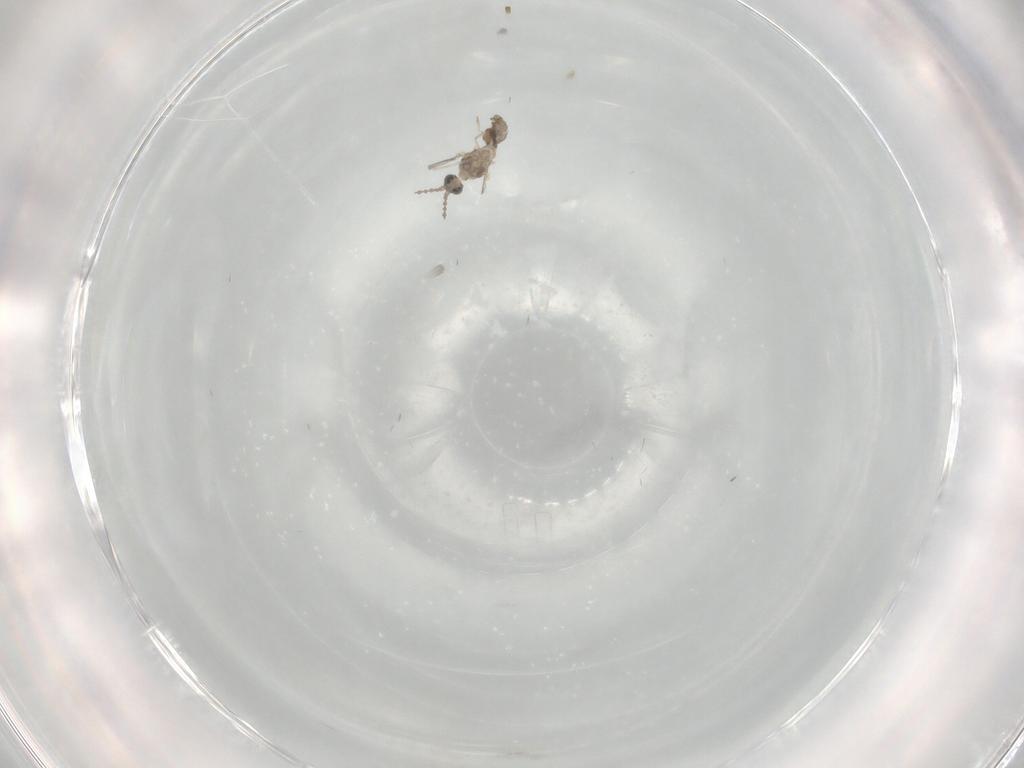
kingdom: Animalia
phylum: Arthropoda
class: Insecta
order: Diptera
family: Cecidomyiidae
